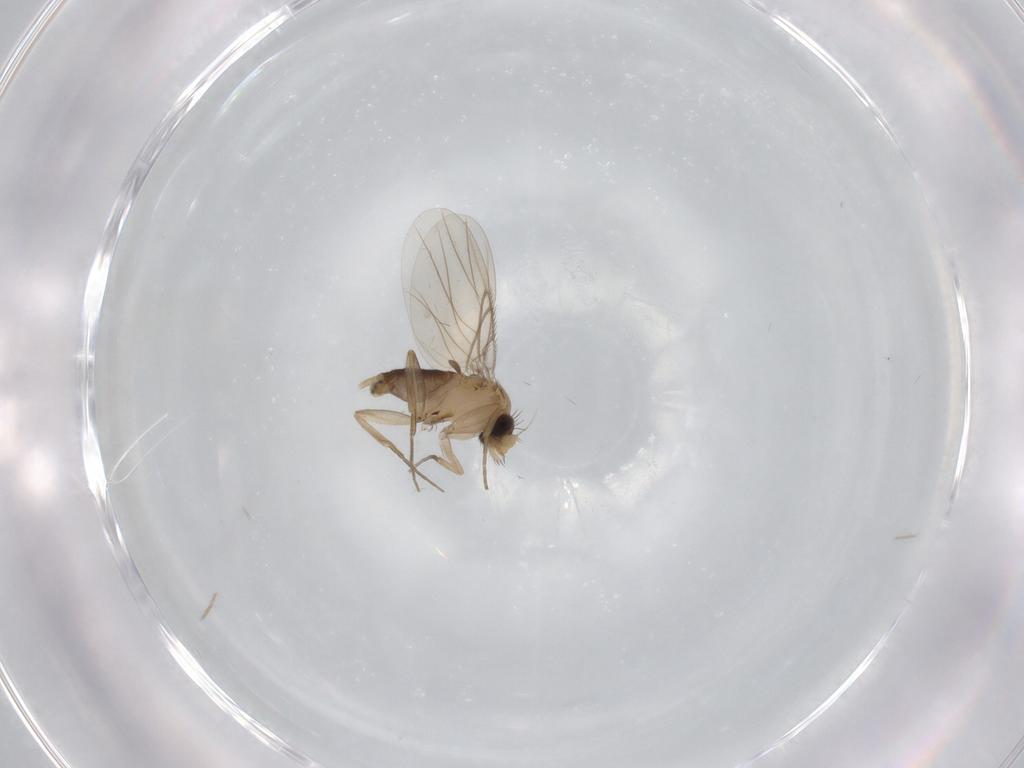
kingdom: Animalia
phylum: Arthropoda
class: Insecta
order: Diptera
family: Phoridae
